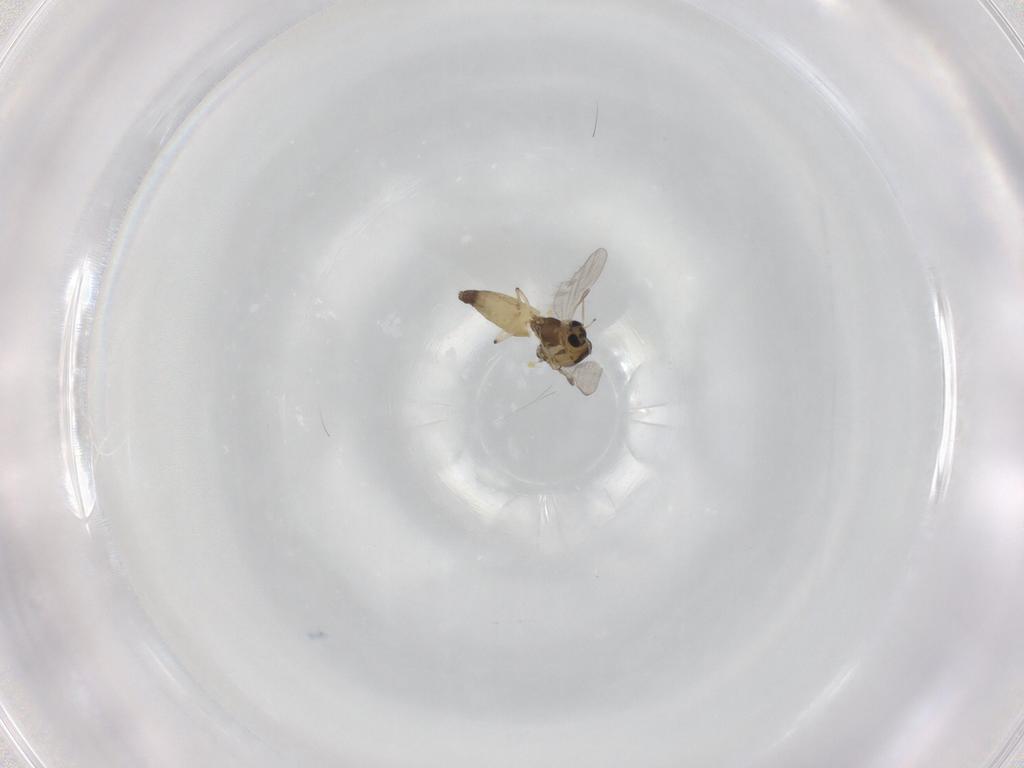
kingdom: Animalia
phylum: Arthropoda
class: Insecta
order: Diptera
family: Chironomidae
